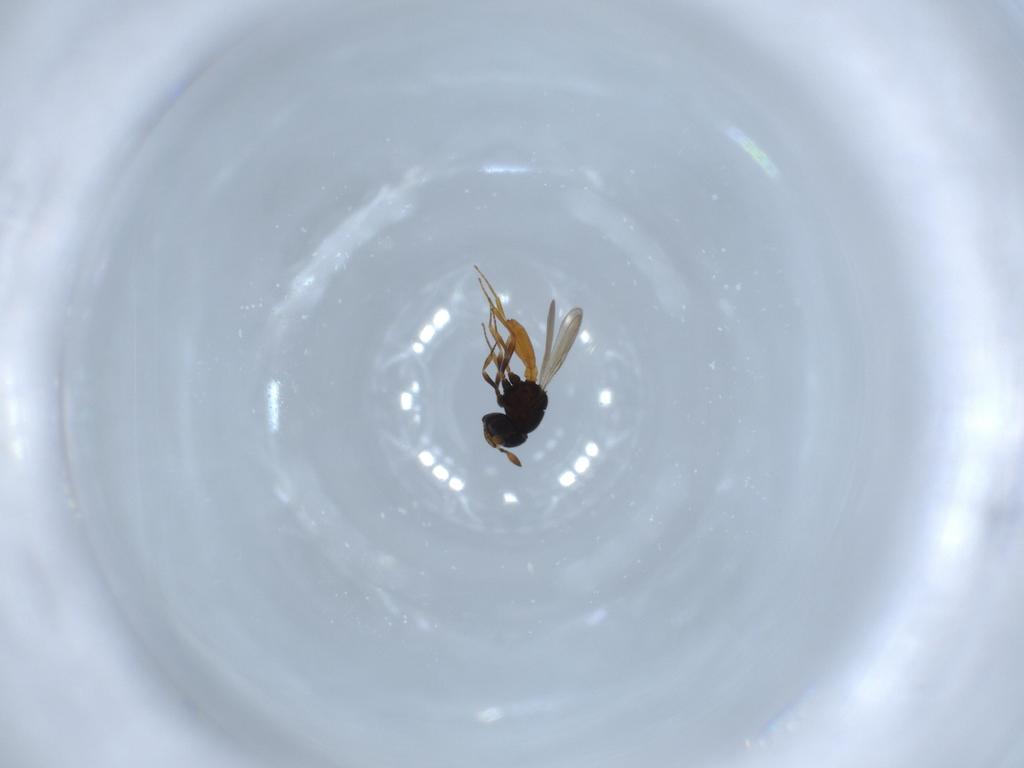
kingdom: Animalia
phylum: Arthropoda
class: Insecta
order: Hymenoptera
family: Scelionidae
